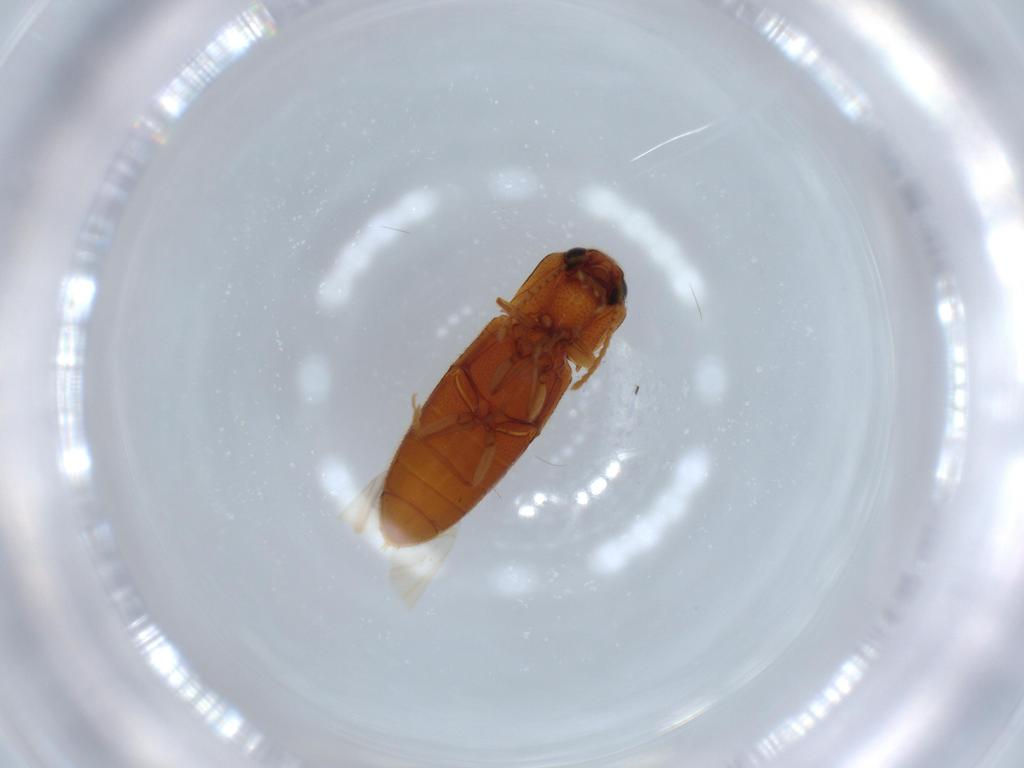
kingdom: Animalia
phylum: Arthropoda
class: Insecta
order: Coleoptera
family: Elateridae
